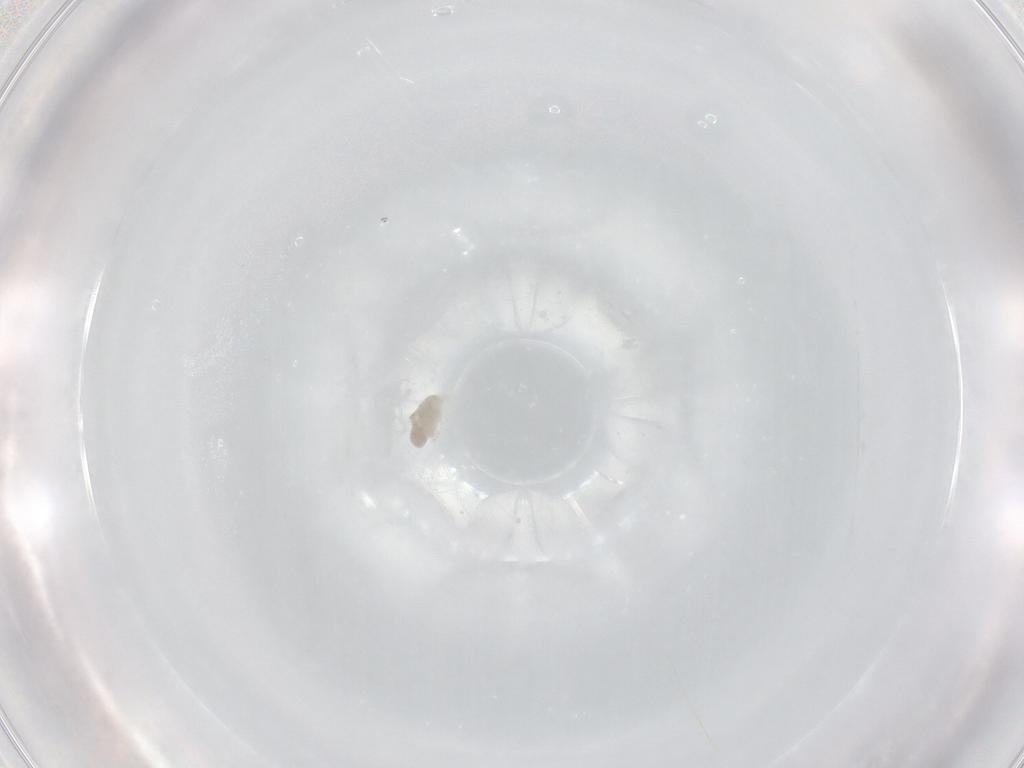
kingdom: Animalia
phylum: Arthropoda
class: Arachnida
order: Trombidiformes
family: Eupodidae
